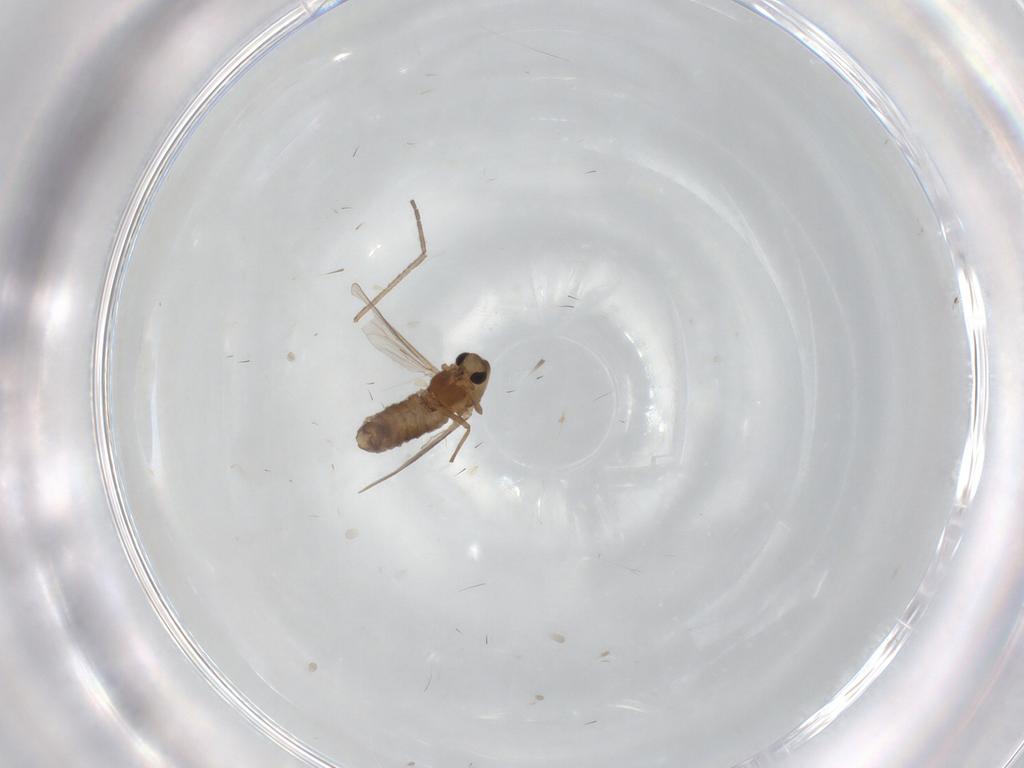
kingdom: Animalia
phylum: Arthropoda
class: Insecta
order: Diptera
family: Chironomidae
